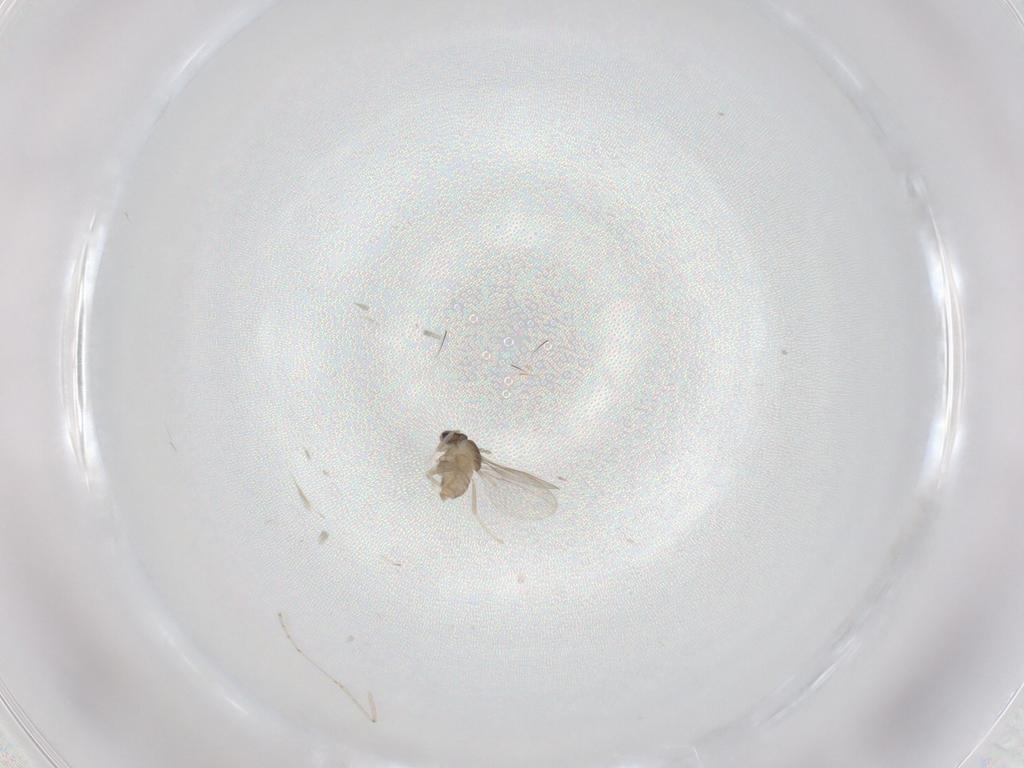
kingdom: Animalia
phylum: Arthropoda
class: Insecta
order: Diptera
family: Cecidomyiidae
